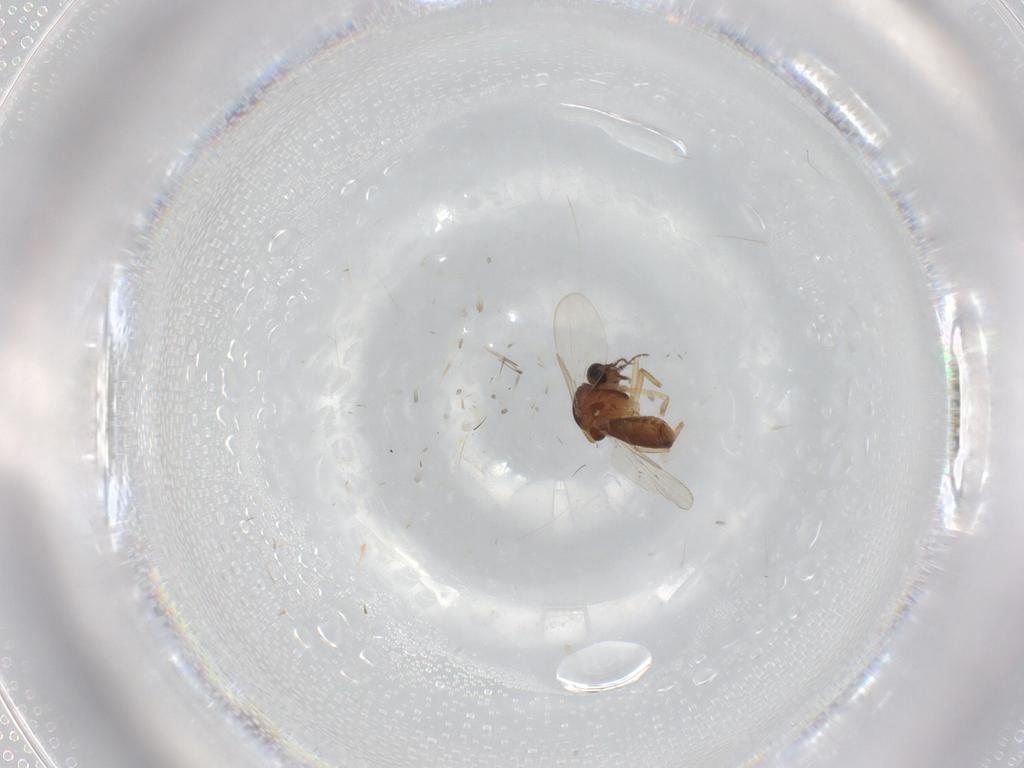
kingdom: Animalia
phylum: Arthropoda
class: Insecta
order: Diptera
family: Ceratopogonidae
